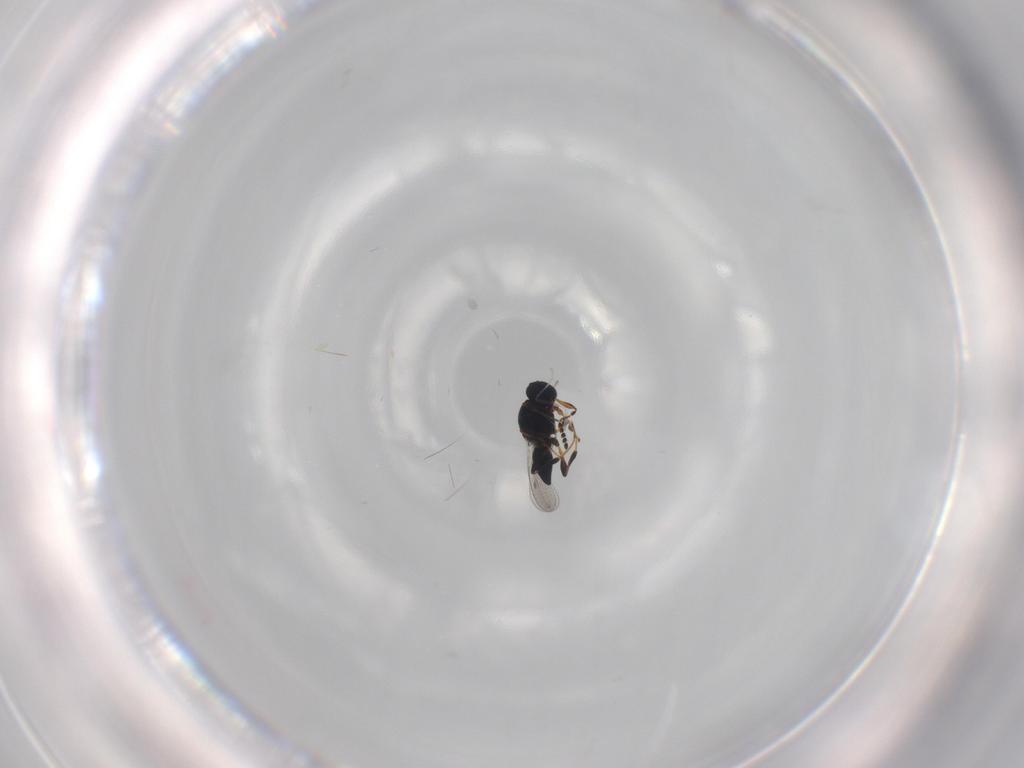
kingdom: Animalia
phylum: Arthropoda
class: Insecta
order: Hymenoptera
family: Platygastridae
